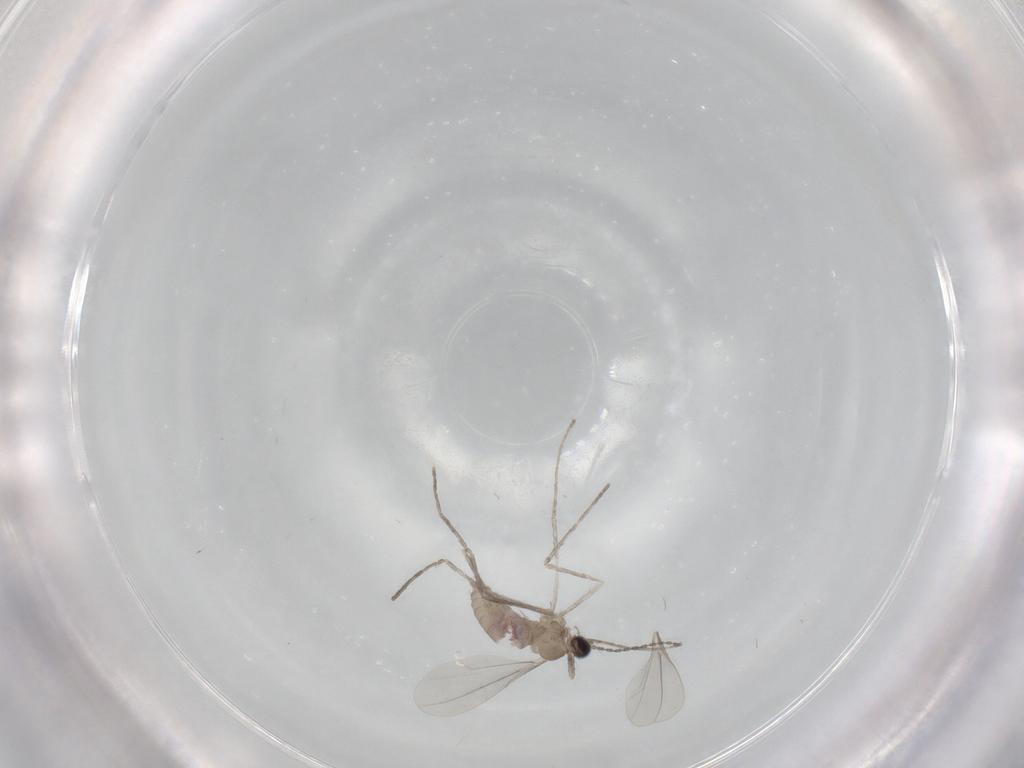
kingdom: Animalia
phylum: Arthropoda
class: Insecta
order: Diptera
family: Cecidomyiidae
